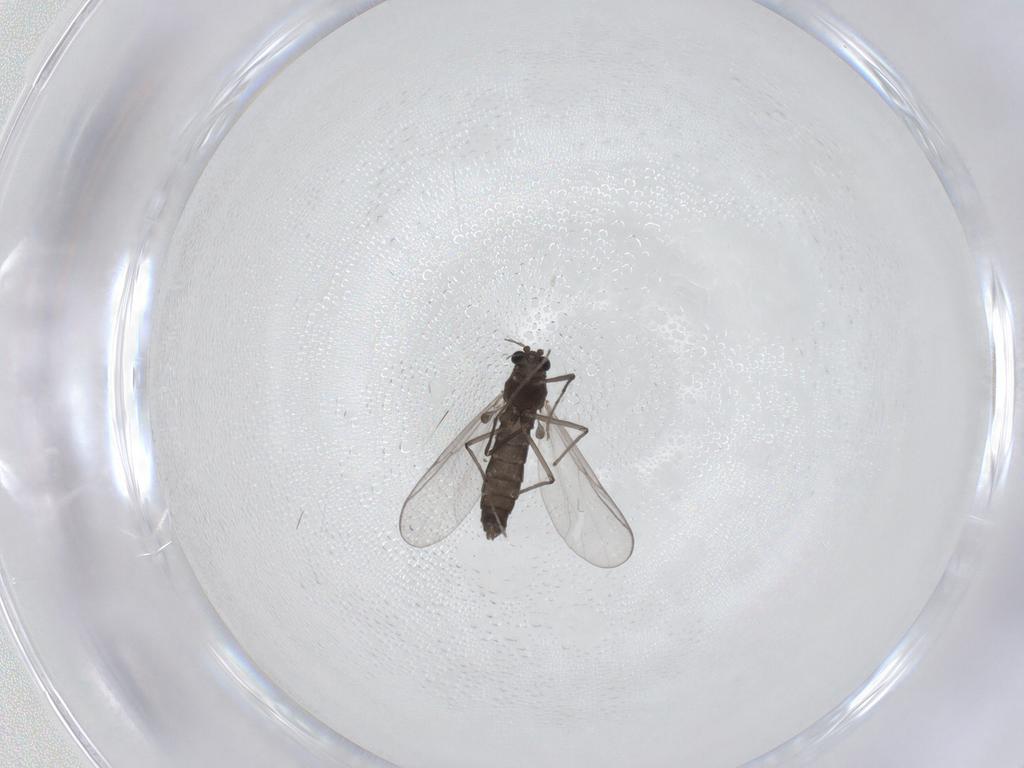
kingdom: Animalia
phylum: Arthropoda
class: Insecta
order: Diptera
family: Chironomidae
